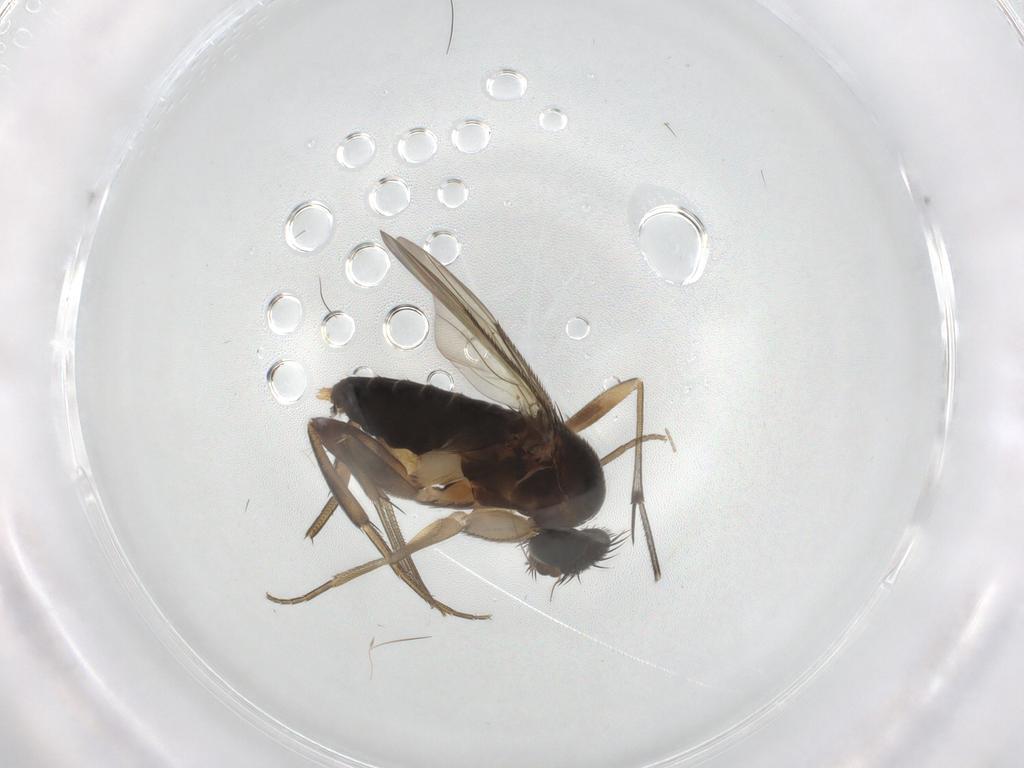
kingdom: Animalia
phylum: Arthropoda
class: Insecta
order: Diptera
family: Phoridae
